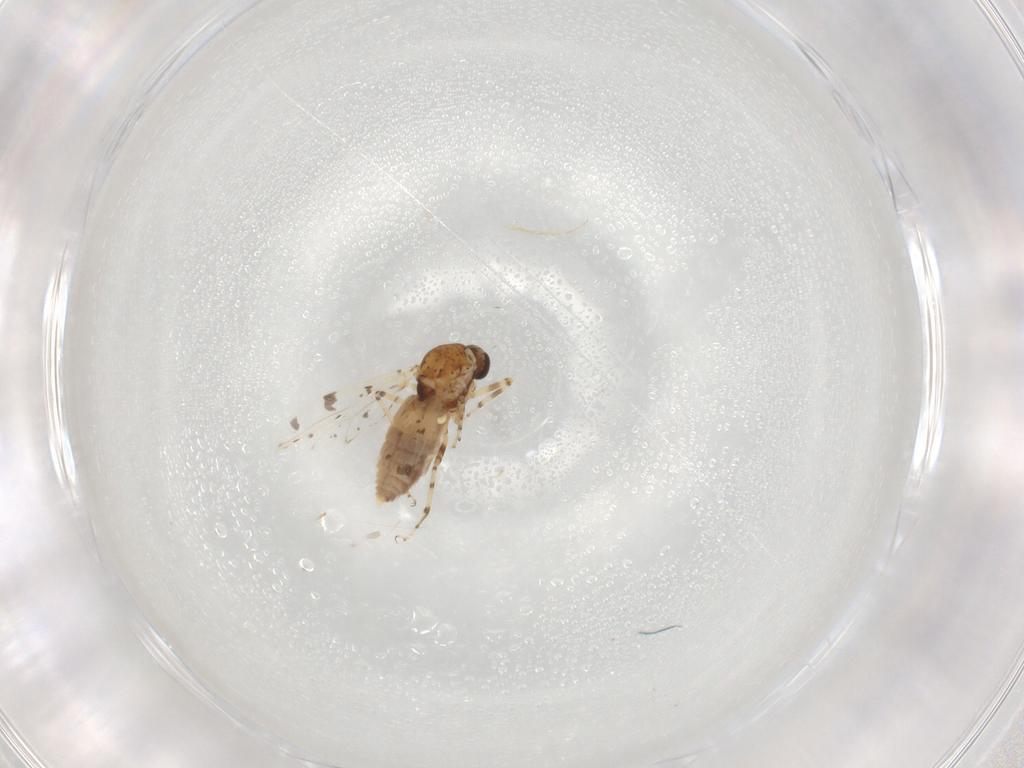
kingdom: Animalia
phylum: Arthropoda
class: Insecta
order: Diptera
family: Ceratopogonidae
